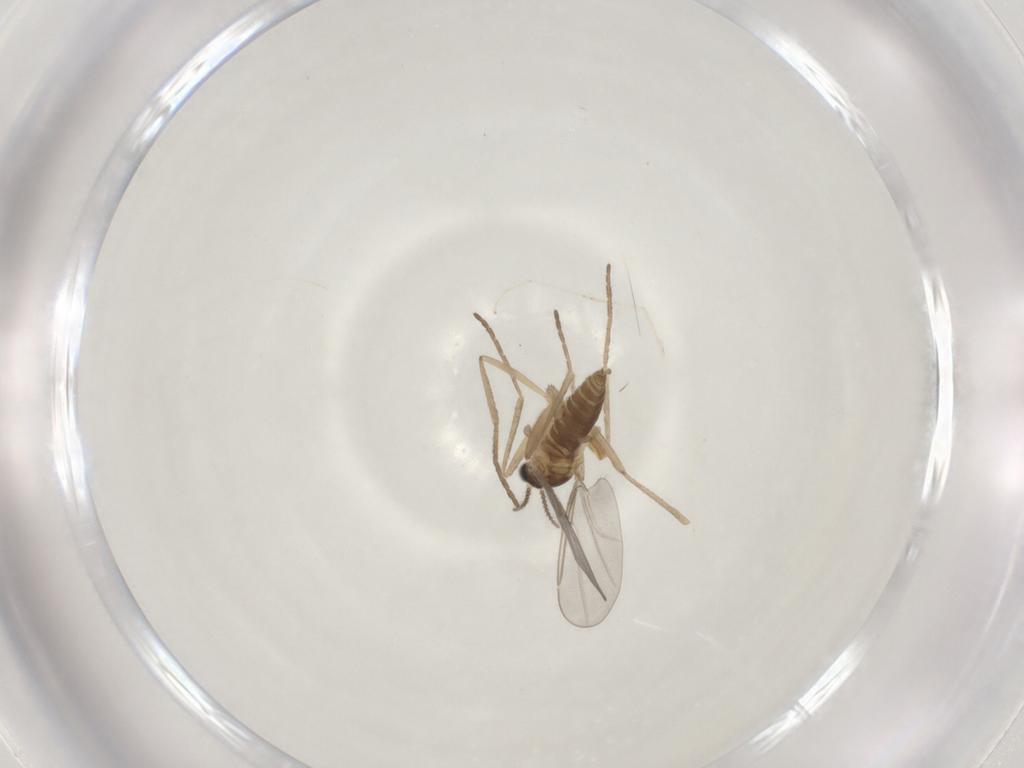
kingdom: Animalia
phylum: Arthropoda
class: Insecta
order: Diptera
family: Cecidomyiidae
